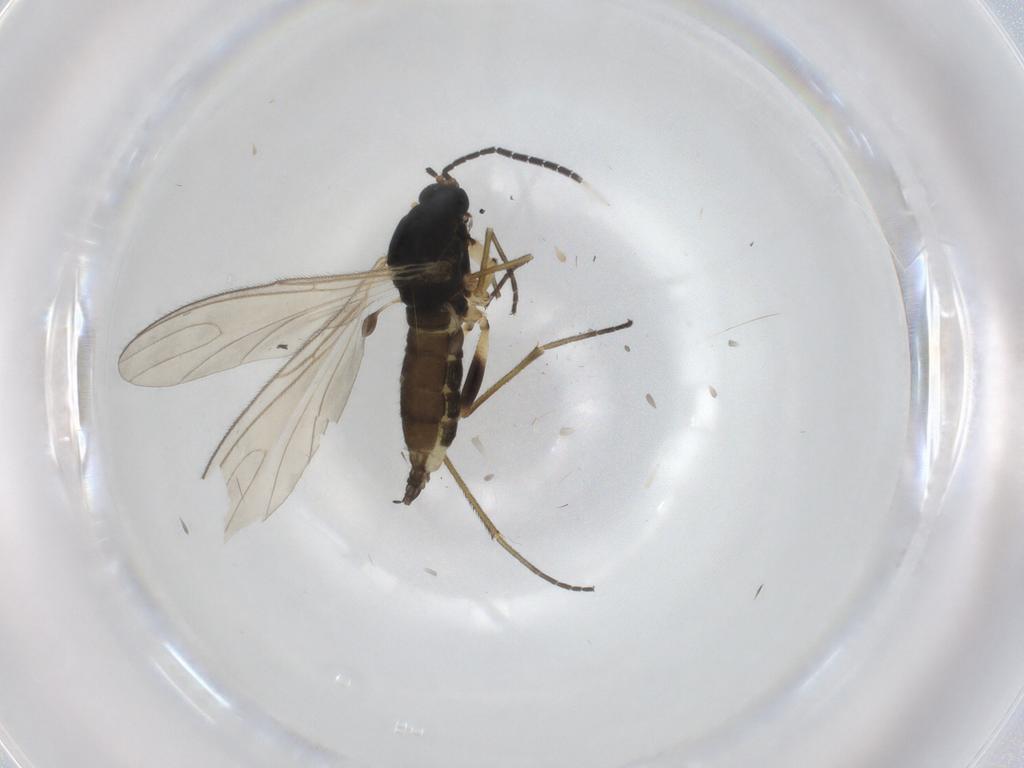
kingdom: Animalia
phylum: Arthropoda
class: Insecta
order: Diptera
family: Sciaridae
